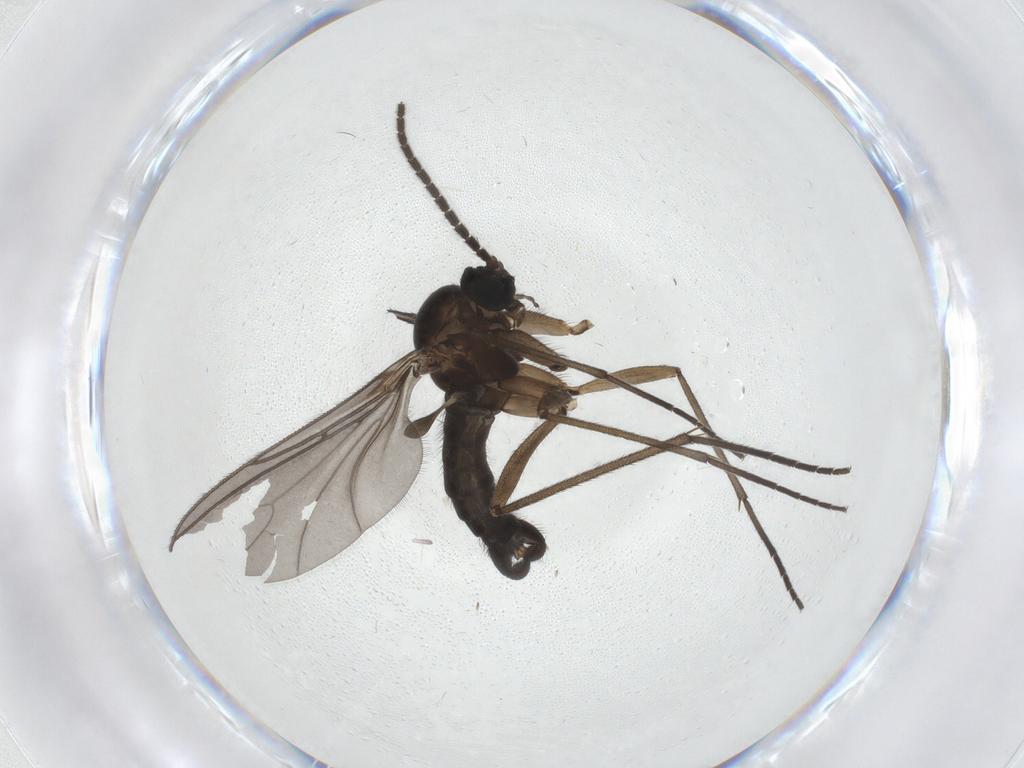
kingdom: Animalia
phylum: Arthropoda
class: Insecta
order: Diptera
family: Sciaridae
